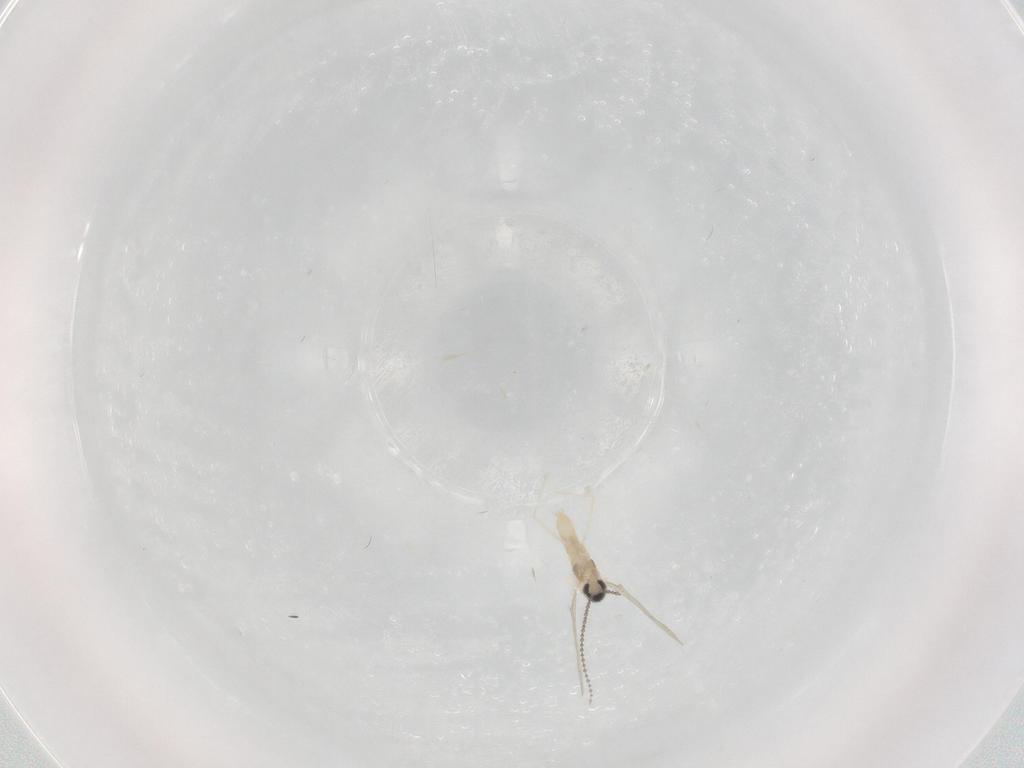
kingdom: Animalia
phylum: Arthropoda
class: Insecta
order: Diptera
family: Cecidomyiidae
